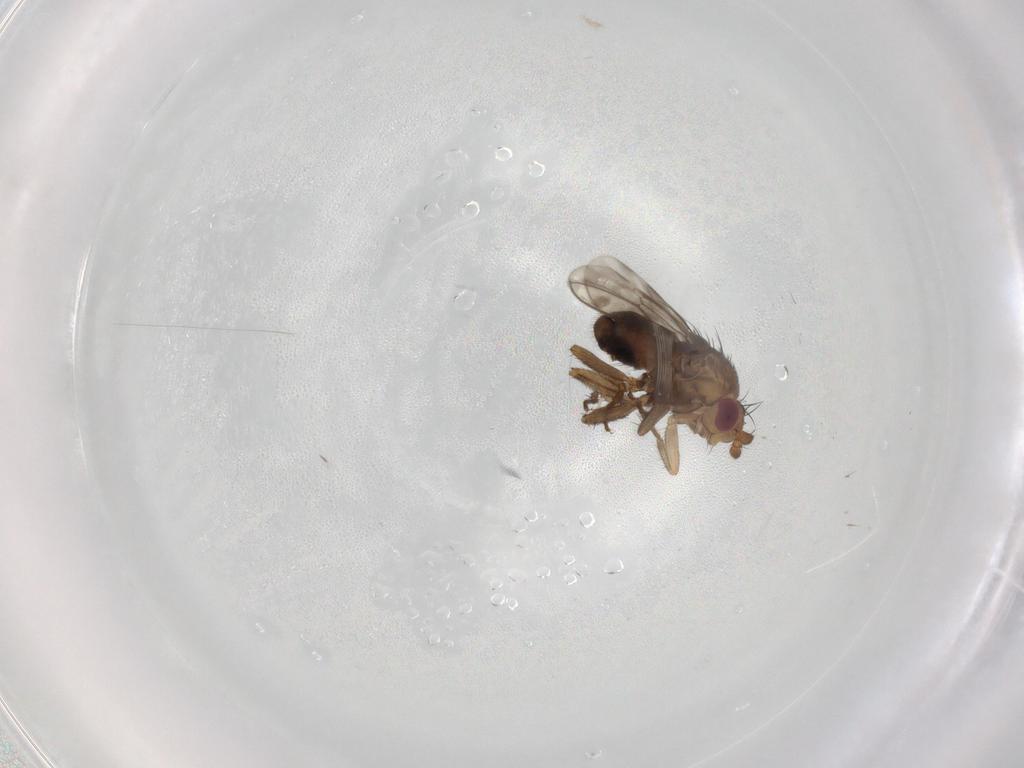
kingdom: Animalia
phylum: Arthropoda
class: Insecta
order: Diptera
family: Sphaeroceridae
